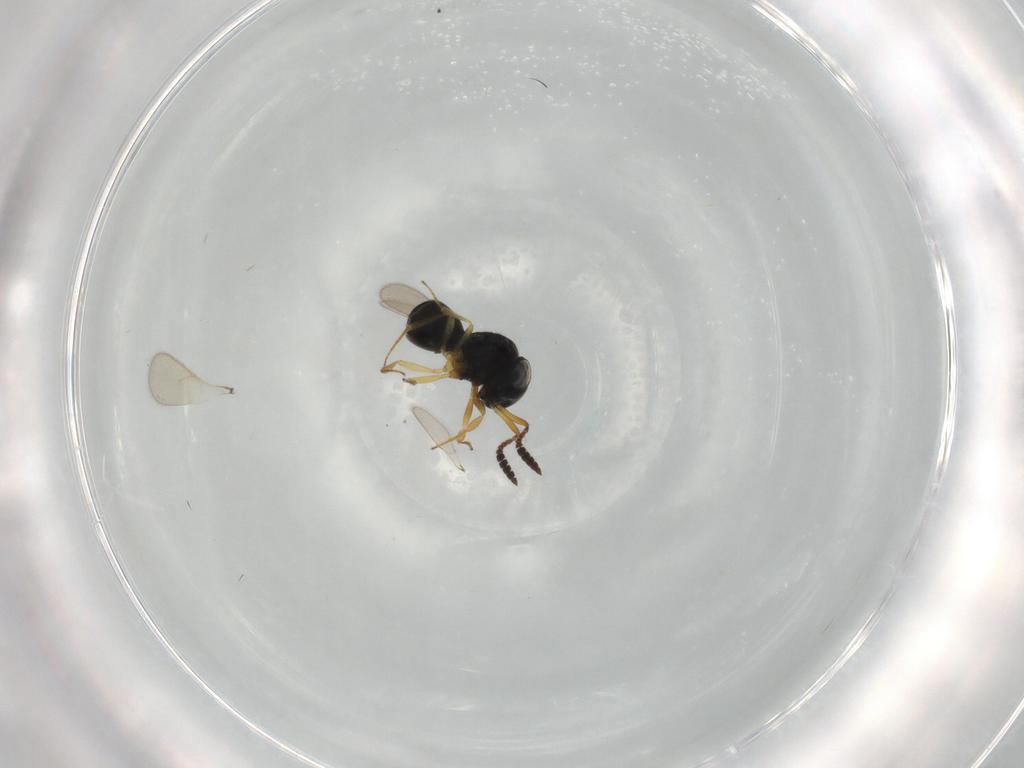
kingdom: Animalia
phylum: Arthropoda
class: Insecta
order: Hymenoptera
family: Scelionidae
